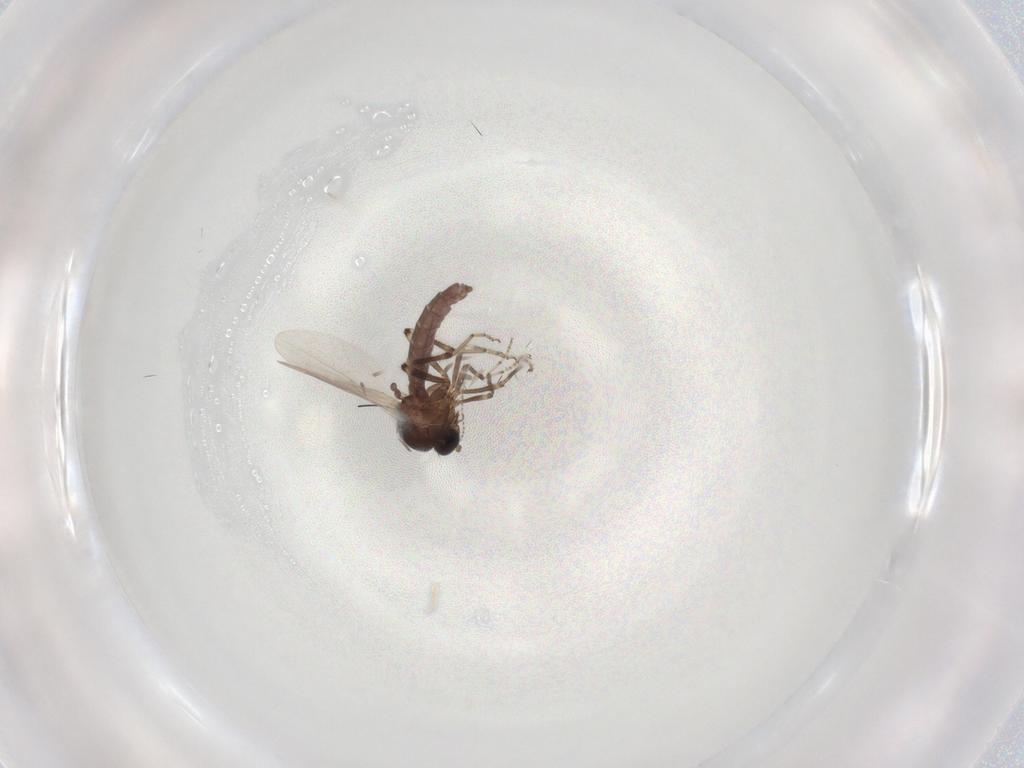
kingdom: Animalia
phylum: Arthropoda
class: Insecta
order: Diptera
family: Ceratopogonidae
